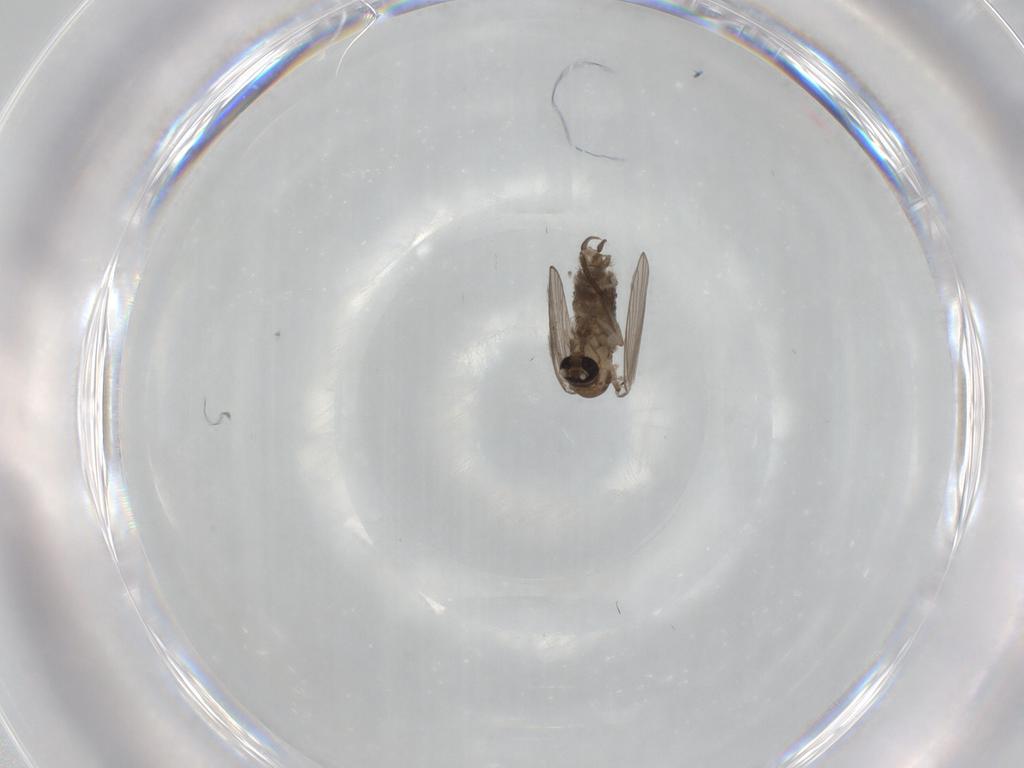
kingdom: Animalia
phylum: Arthropoda
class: Insecta
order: Diptera
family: Psychodidae
